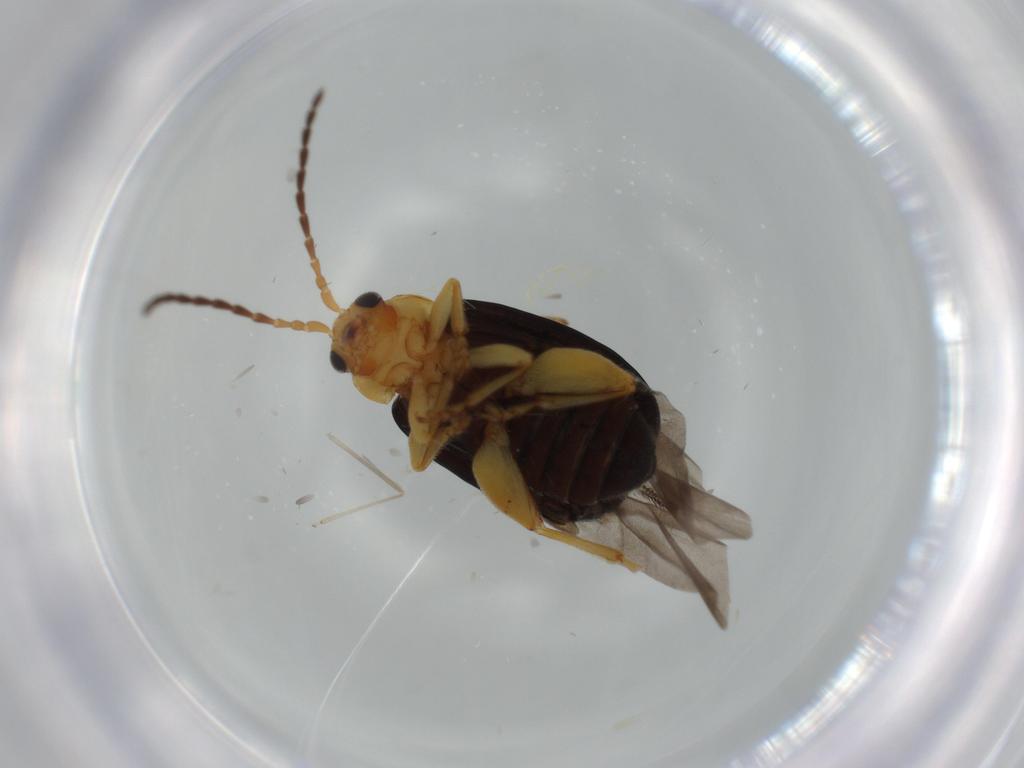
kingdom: Animalia
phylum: Arthropoda
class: Insecta
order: Coleoptera
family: Chrysomelidae
